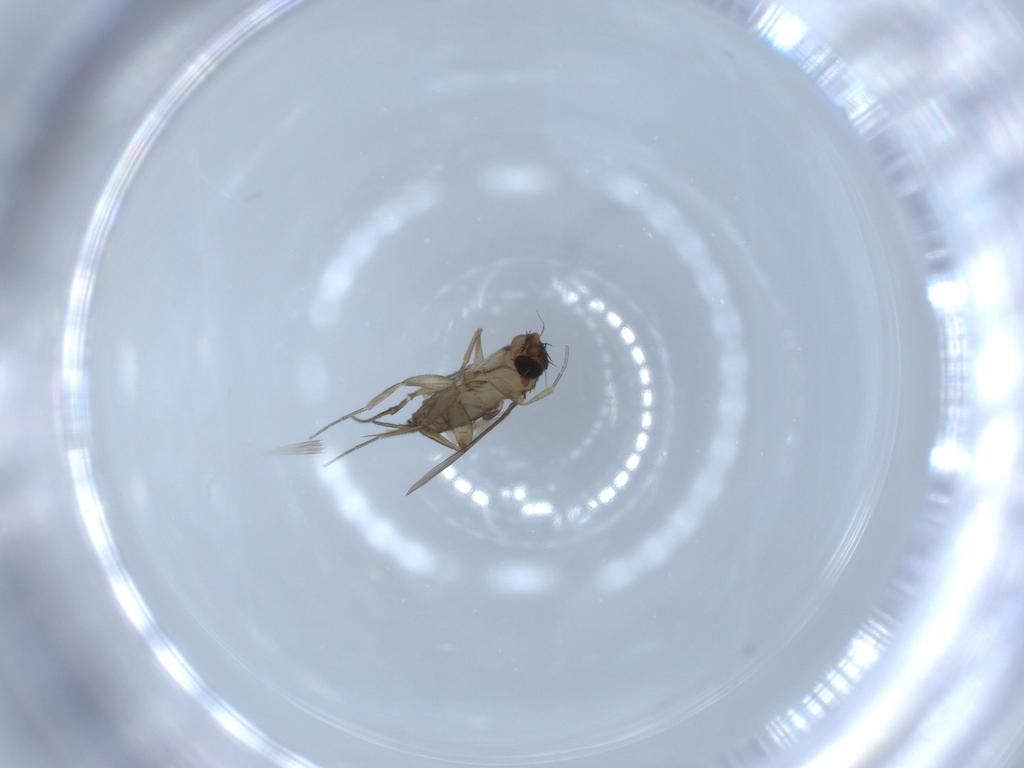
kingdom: Animalia
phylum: Arthropoda
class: Insecta
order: Diptera
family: Phoridae
